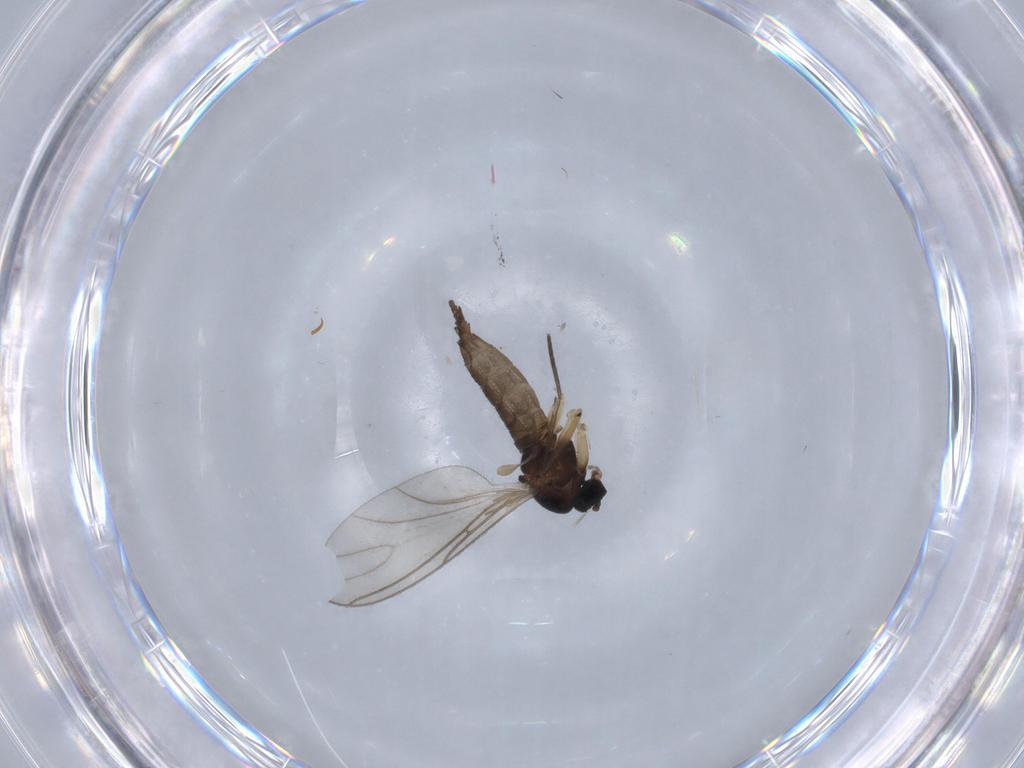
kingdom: Animalia
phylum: Arthropoda
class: Insecta
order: Diptera
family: Sciaridae
